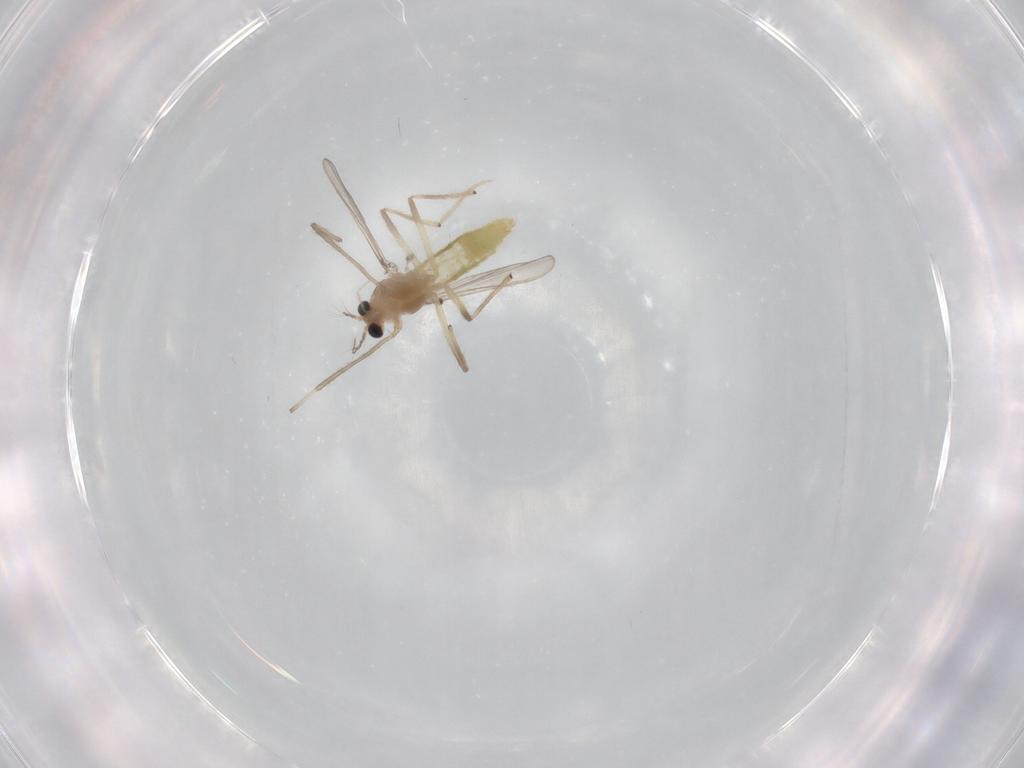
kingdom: Animalia
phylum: Arthropoda
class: Insecta
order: Diptera
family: Chironomidae
